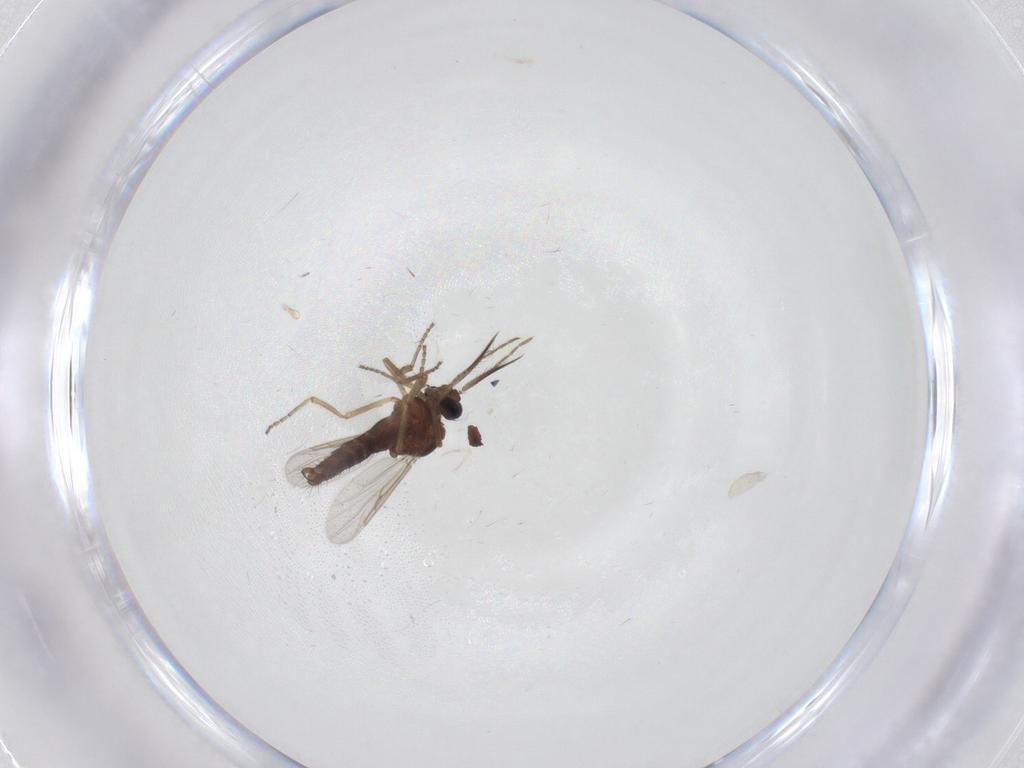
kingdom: Animalia
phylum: Arthropoda
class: Insecta
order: Diptera
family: Ceratopogonidae
